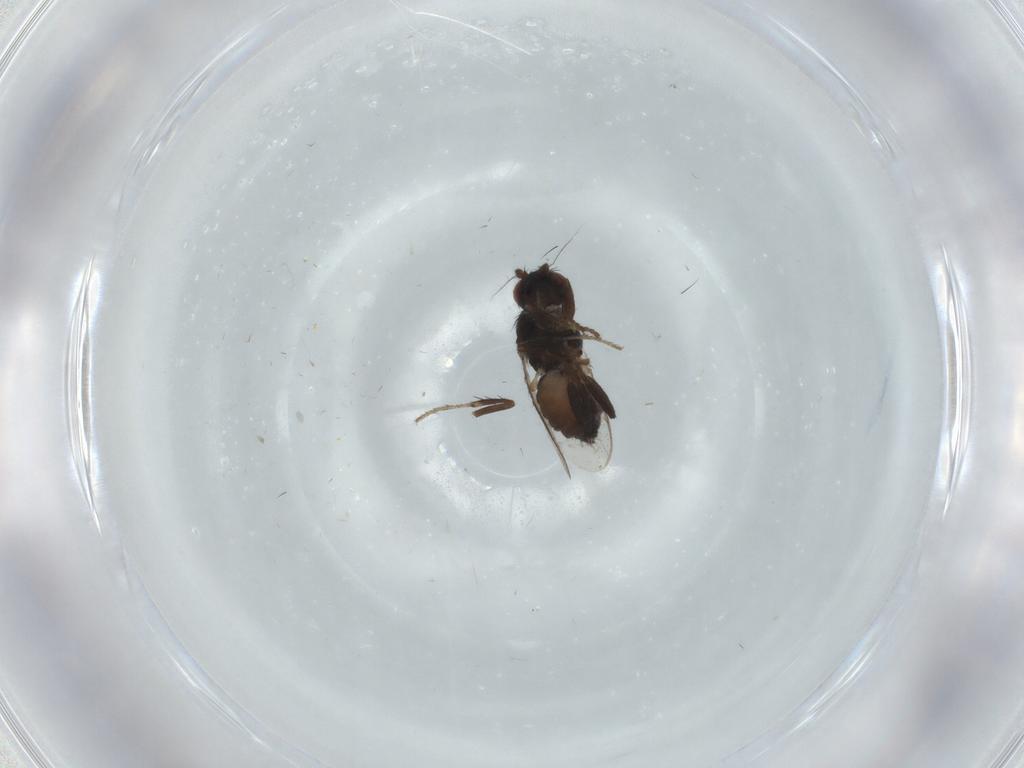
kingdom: Animalia
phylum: Arthropoda
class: Insecta
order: Diptera
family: Sphaeroceridae
